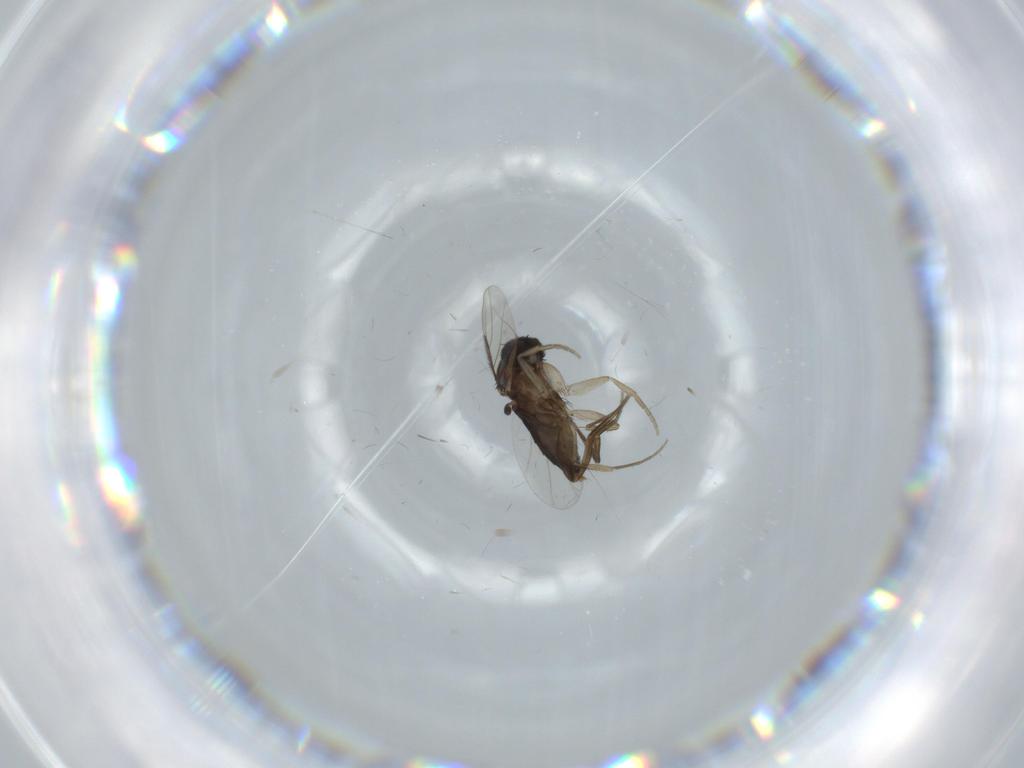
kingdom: Animalia
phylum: Arthropoda
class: Insecta
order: Diptera
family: Phoridae
